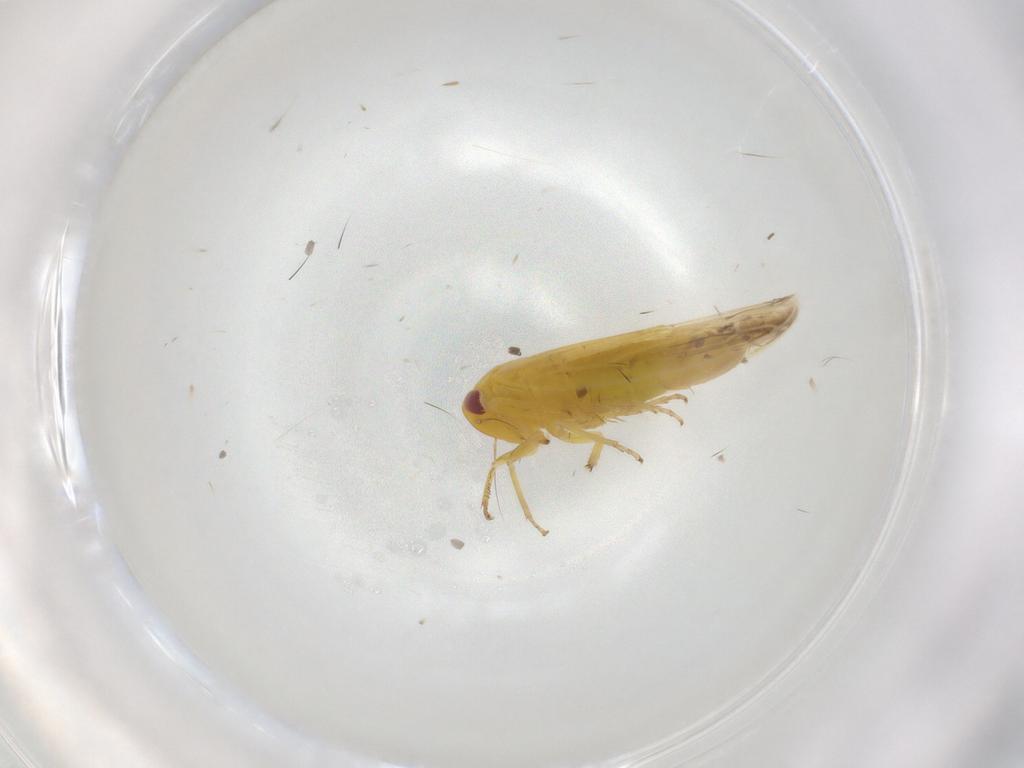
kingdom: Animalia
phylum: Arthropoda
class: Insecta
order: Hemiptera
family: Cicadellidae
